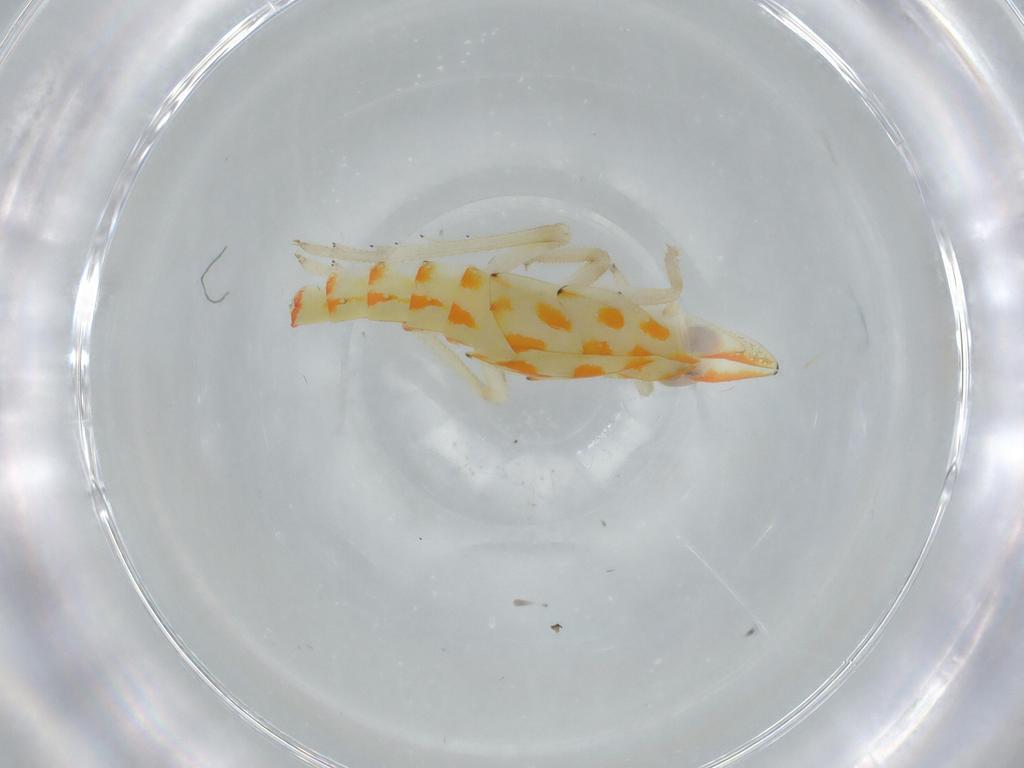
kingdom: Animalia
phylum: Arthropoda
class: Insecta
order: Hemiptera
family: Tropiduchidae
